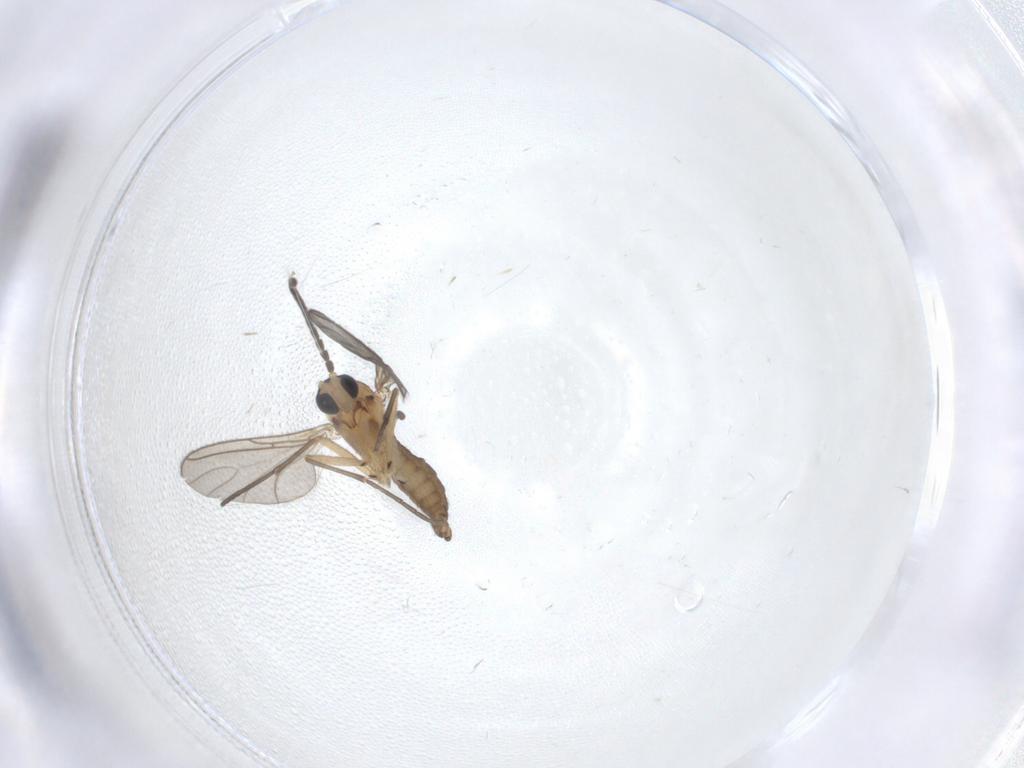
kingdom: Animalia
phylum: Arthropoda
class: Insecta
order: Diptera
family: Sciaridae
